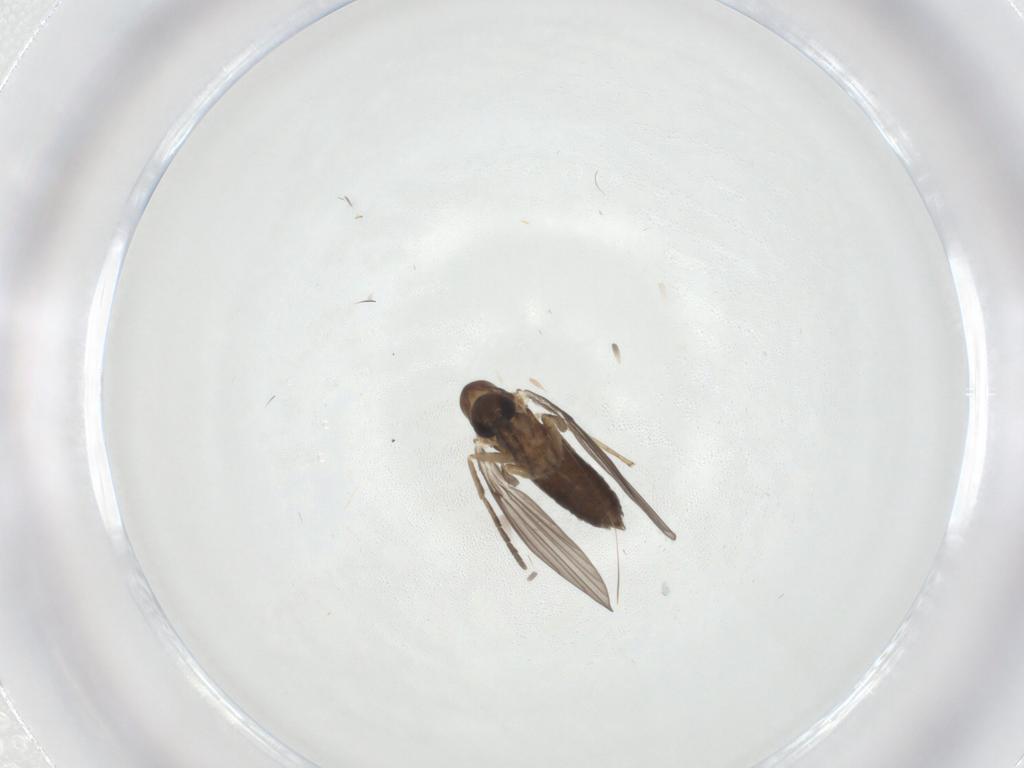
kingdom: Animalia
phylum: Arthropoda
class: Insecta
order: Diptera
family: Psychodidae
